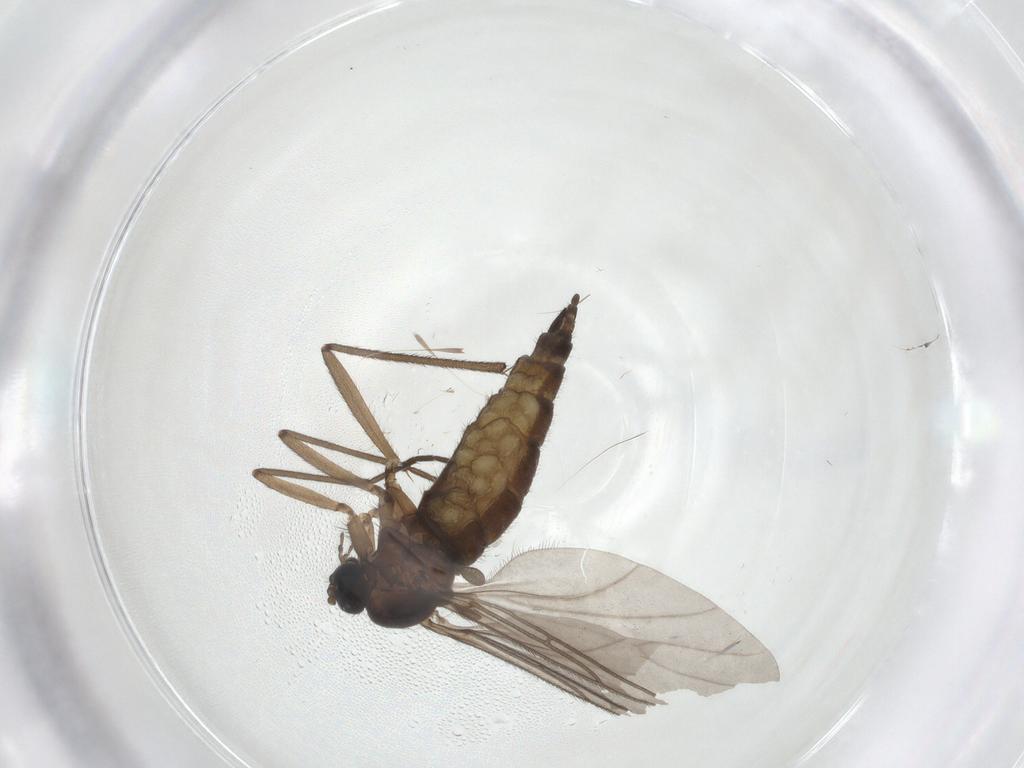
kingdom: Animalia
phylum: Arthropoda
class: Insecta
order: Diptera
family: Sciaridae
